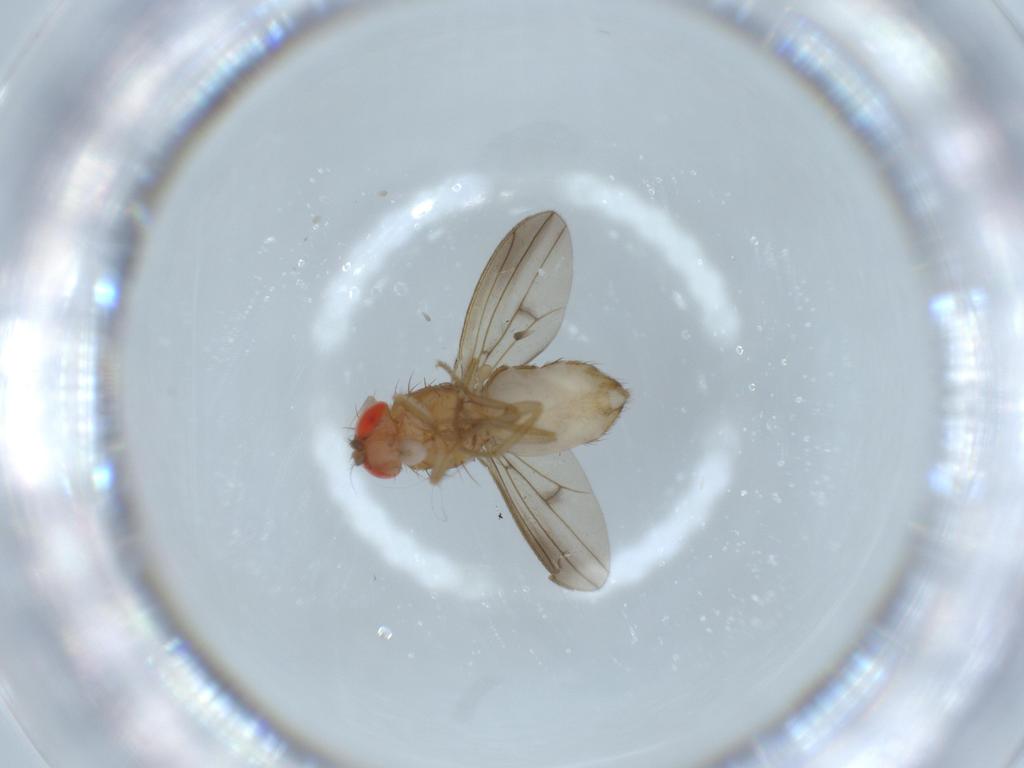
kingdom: Animalia
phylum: Arthropoda
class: Insecta
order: Diptera
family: Drosophilidae
